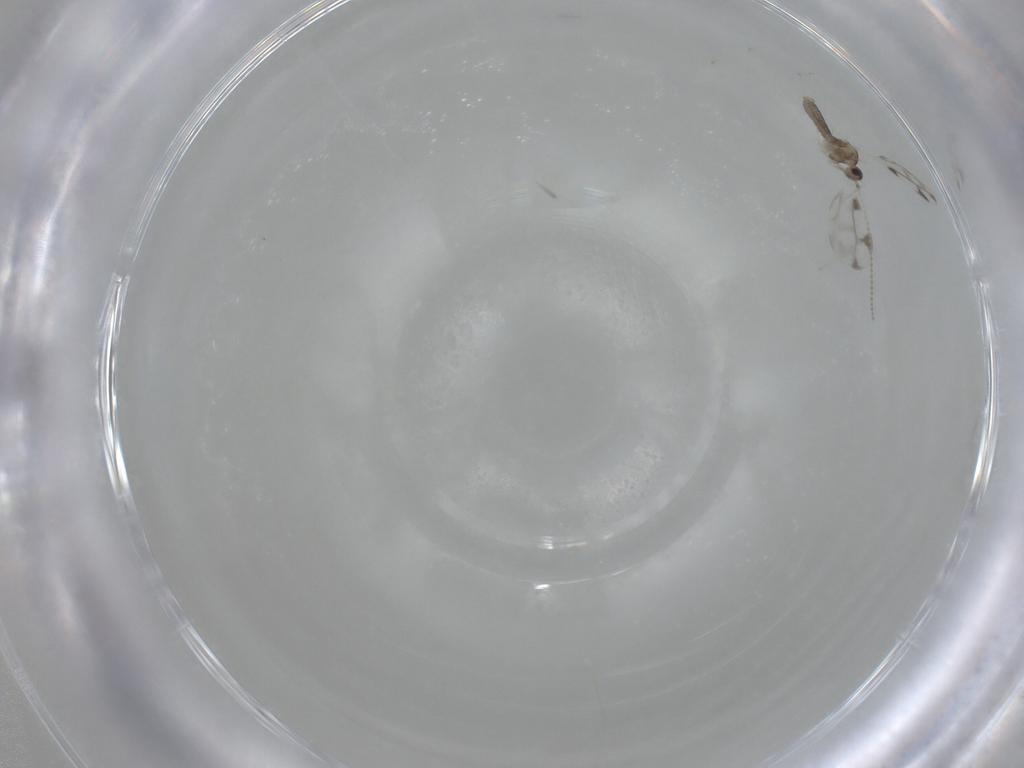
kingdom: Animalia
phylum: Arthropoda
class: Insecta
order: Diptera
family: Cecidomyiidae
